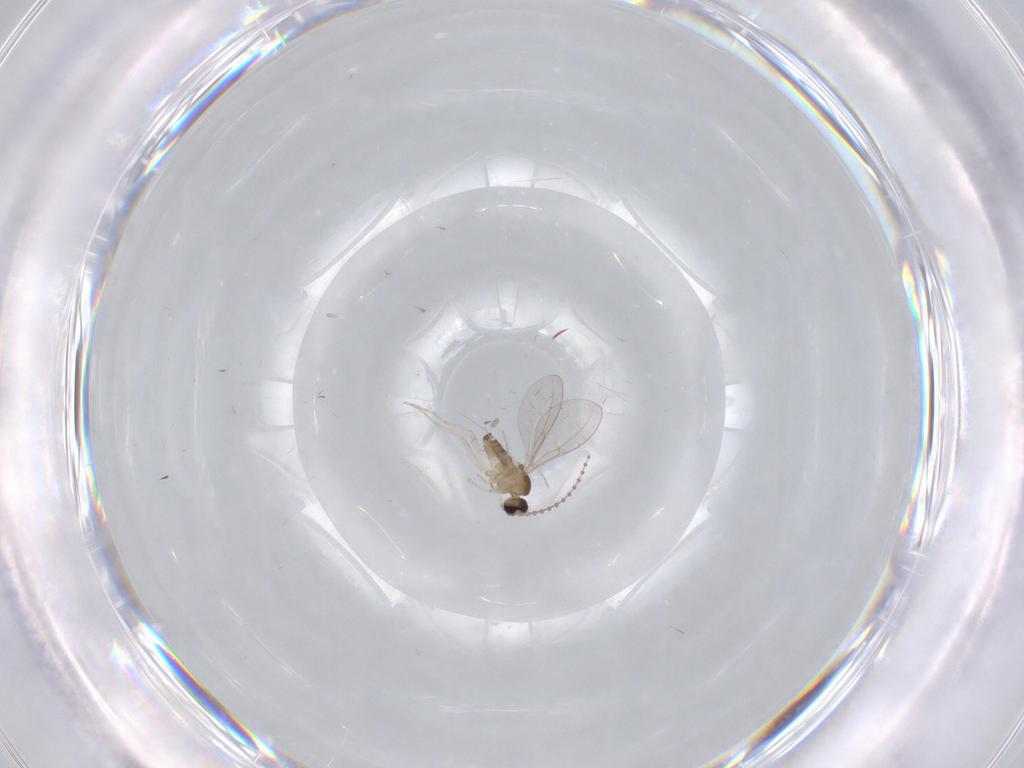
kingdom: Animalia
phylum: Arthropoda
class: Insecta
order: Diptera
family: Cecidomyiidae
